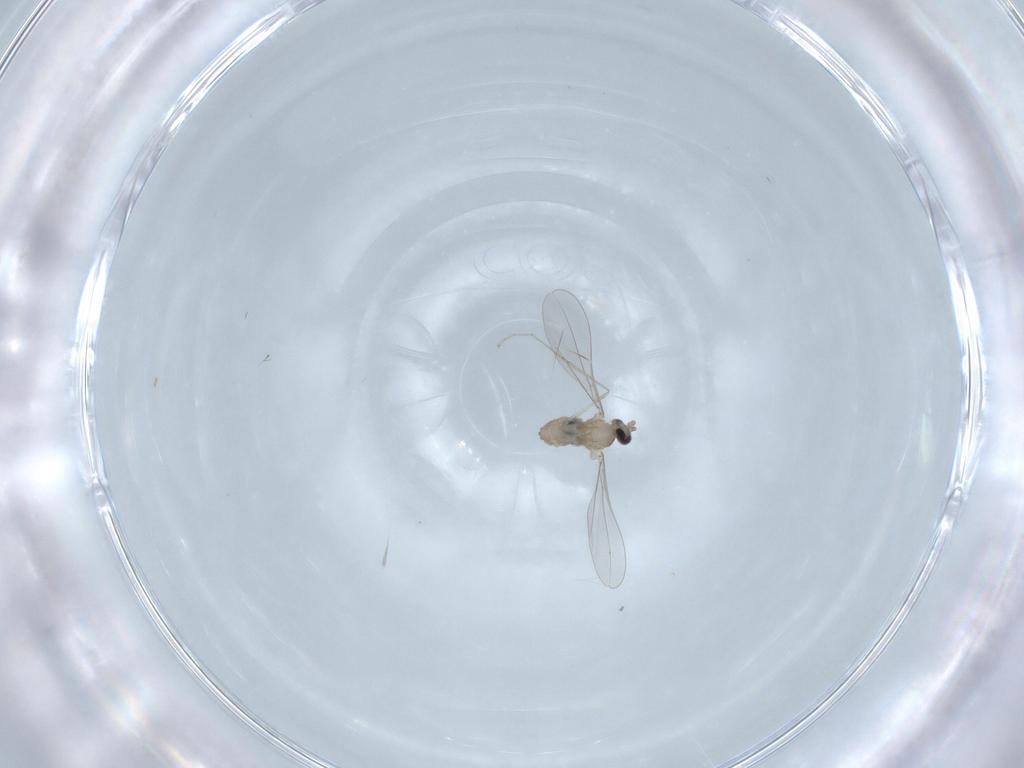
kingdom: Animalia
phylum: Arthropoda
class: Insecta
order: Diptera
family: Cecidomyiidae
